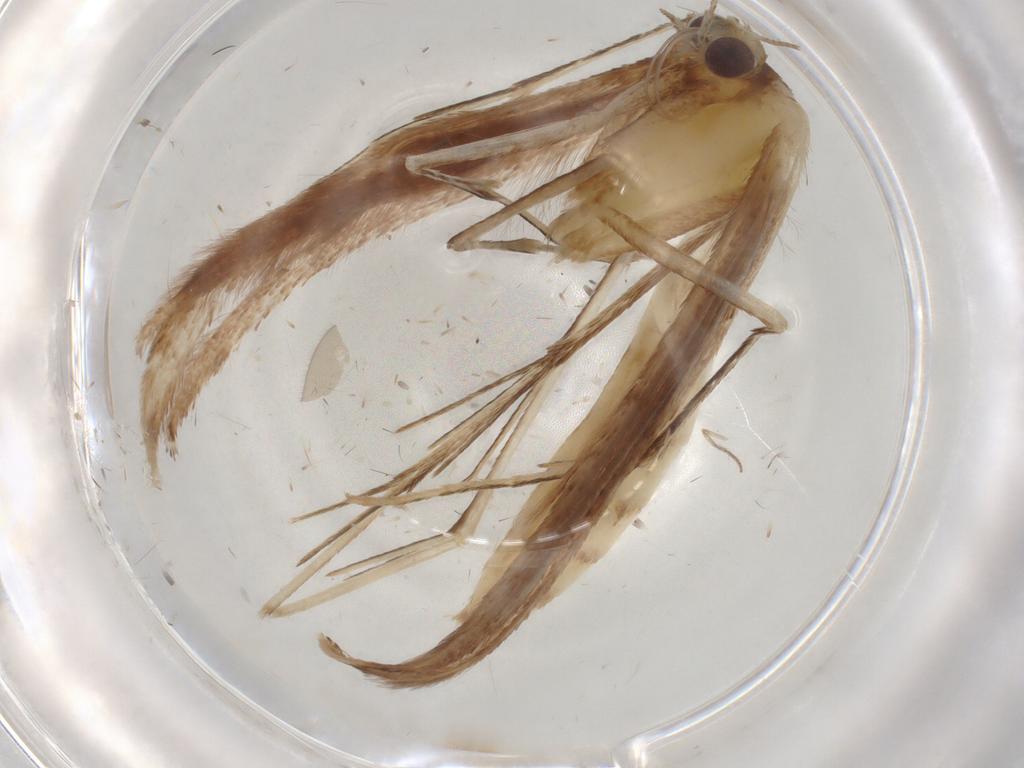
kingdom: Animalia
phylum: Arthropoda
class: Insecta
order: Lepidoptera
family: Elachistidae
